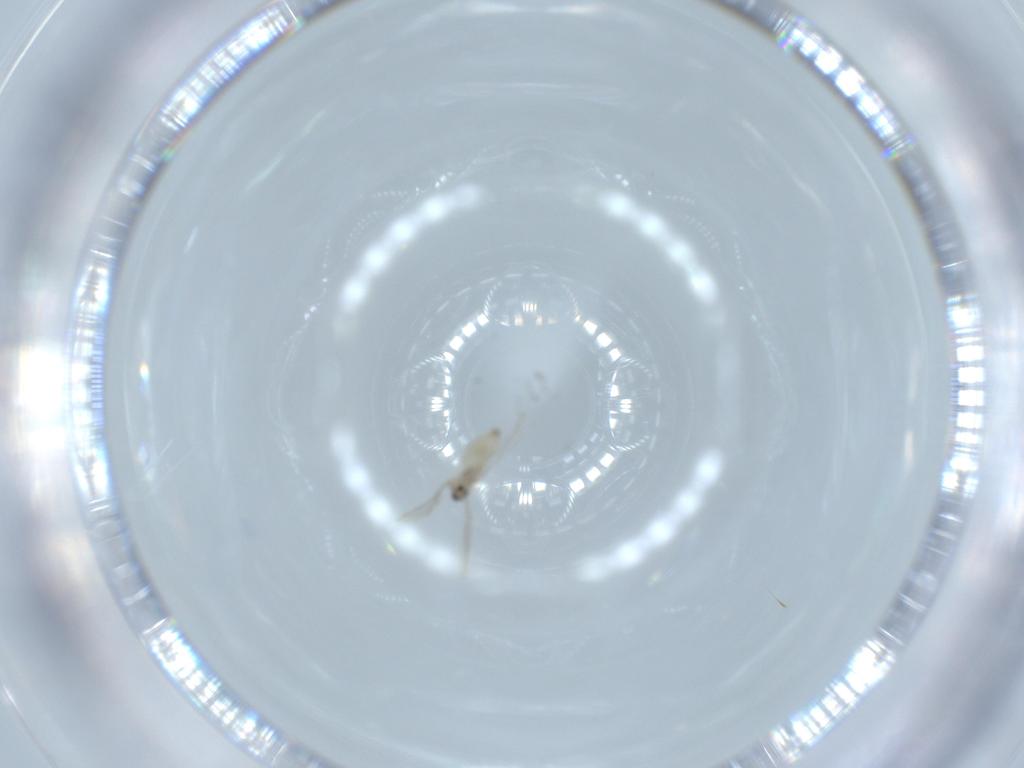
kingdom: Animalia
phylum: Arthropoda
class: Insecta
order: Diptera
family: Cecidomyiidae
